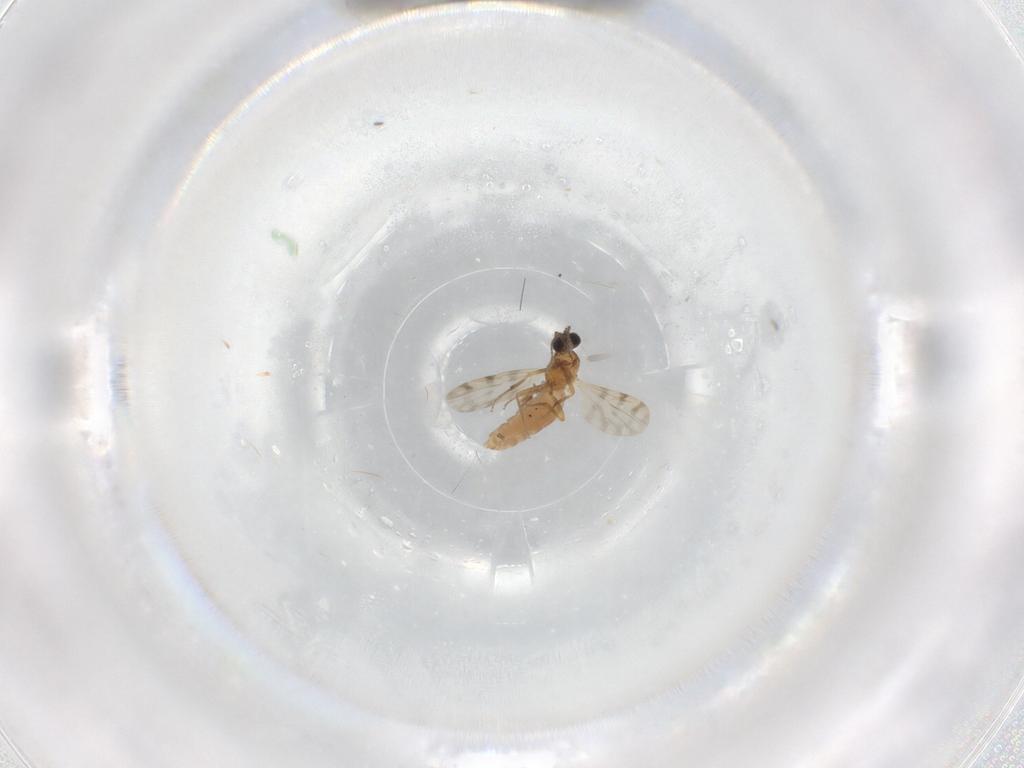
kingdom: Animalia
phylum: Arthropoda
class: Insecta
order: Diptera
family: Ceratopogonidae
